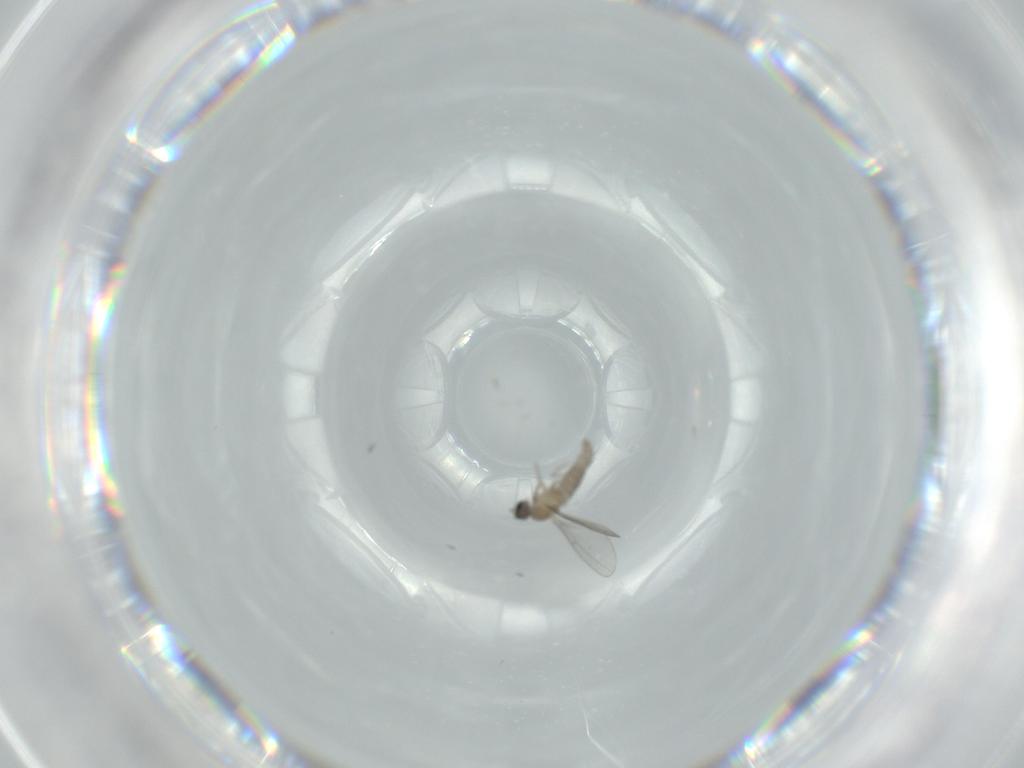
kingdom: Animalia
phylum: Arthropoda
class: Insecta
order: Diptera
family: Cecidomyiidae
